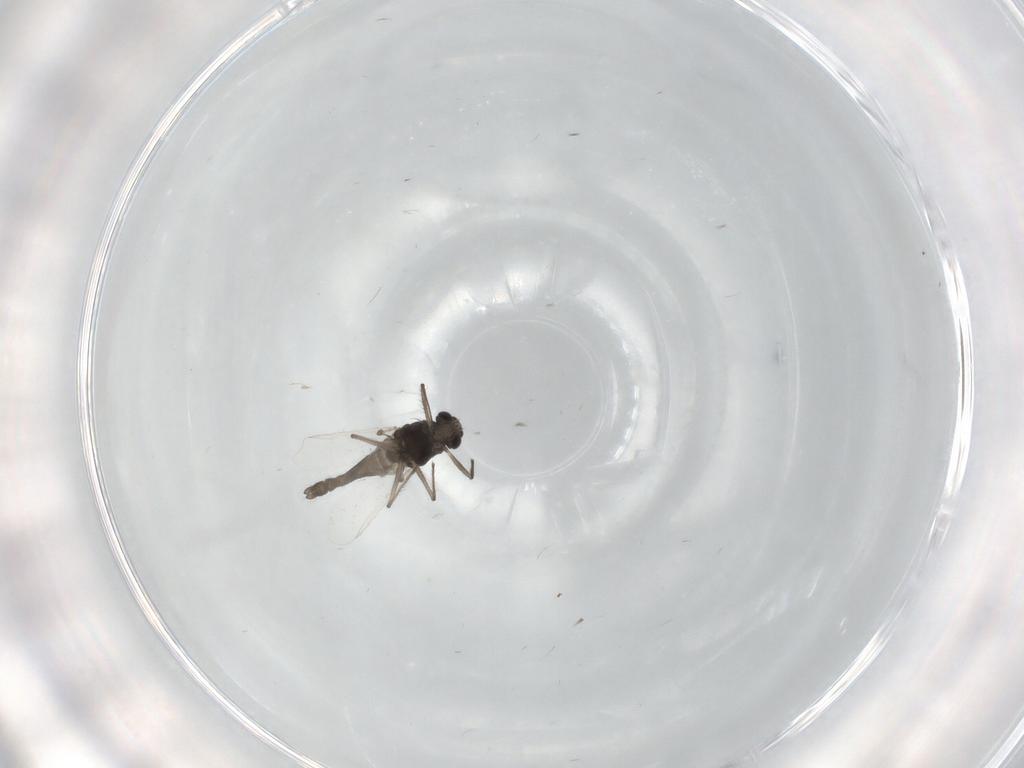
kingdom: Animalia
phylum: Arthropoda
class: Insecta
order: Diptera
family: Chironomidae
